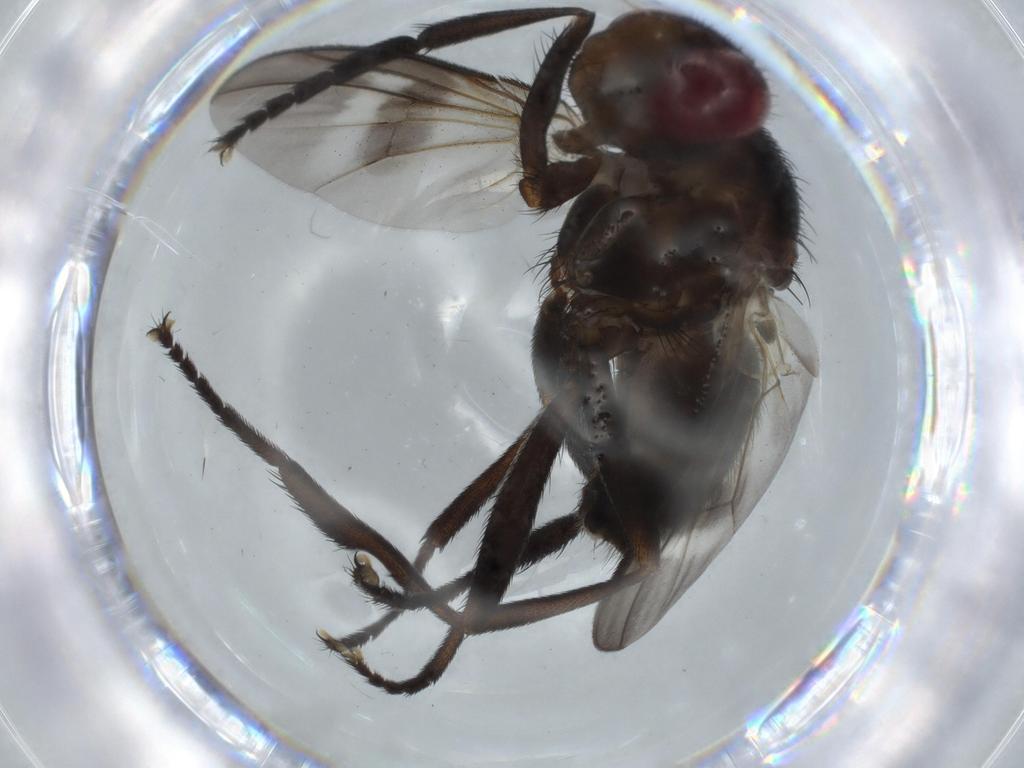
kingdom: Animalia
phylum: Arthropoda
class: Insecta
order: Diptera
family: Calliphoridae
